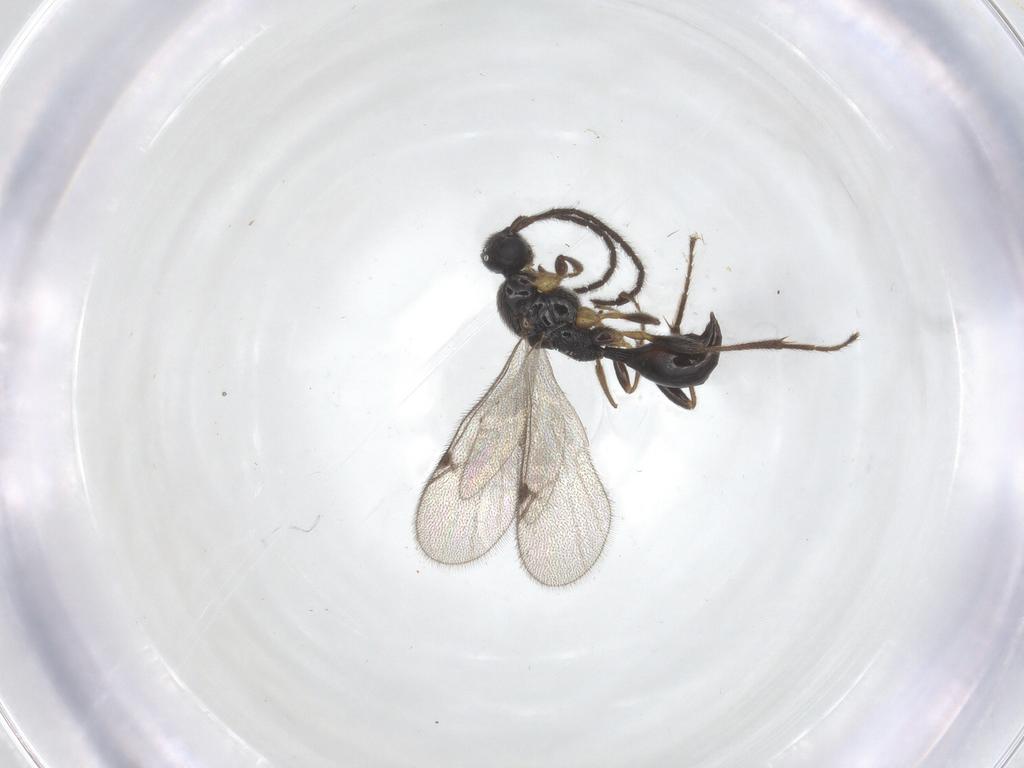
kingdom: Animalia
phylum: Arthropoda
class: Insecta
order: Hymenoptera
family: Proctotrupidae
